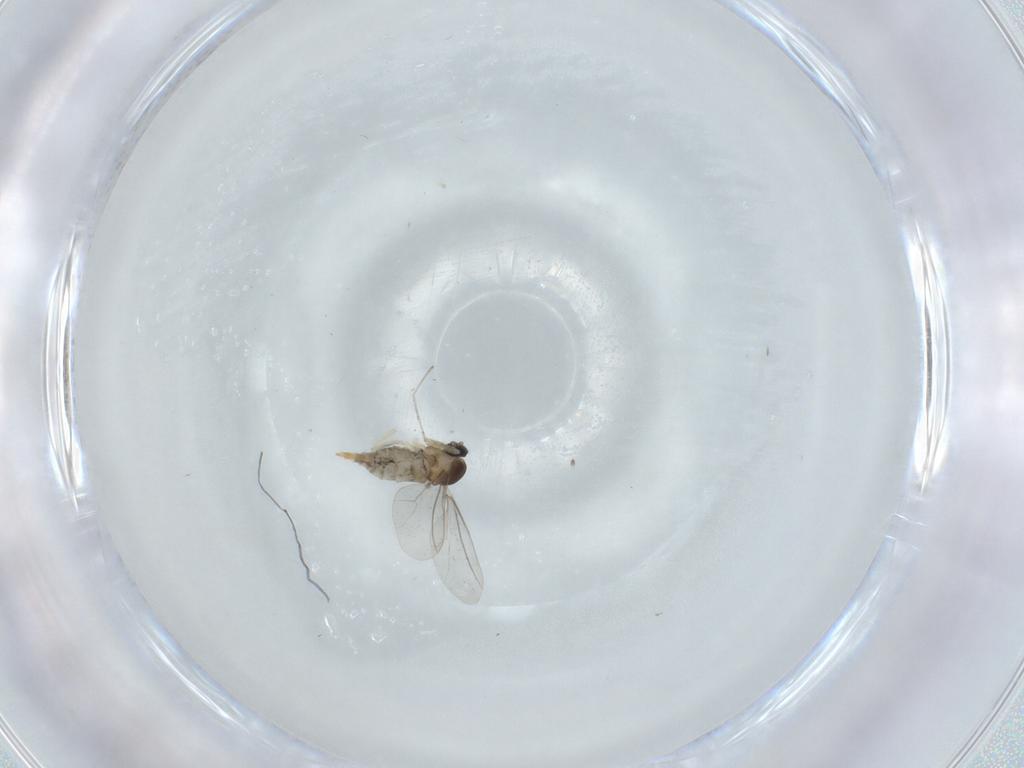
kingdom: Animalia
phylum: Arthropoda
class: Insecta
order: Diptera
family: Cecidomyiidae
